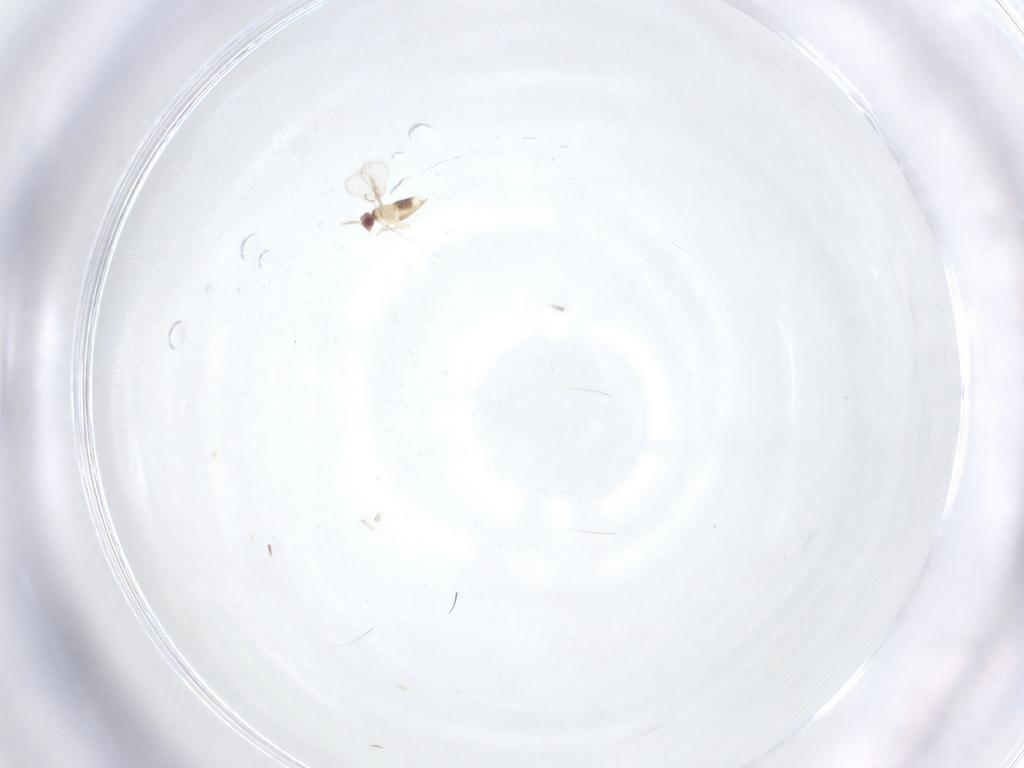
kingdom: Animalia
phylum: Arthropoda
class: Insecta
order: Hymenoptera
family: Trichogrammatidae
